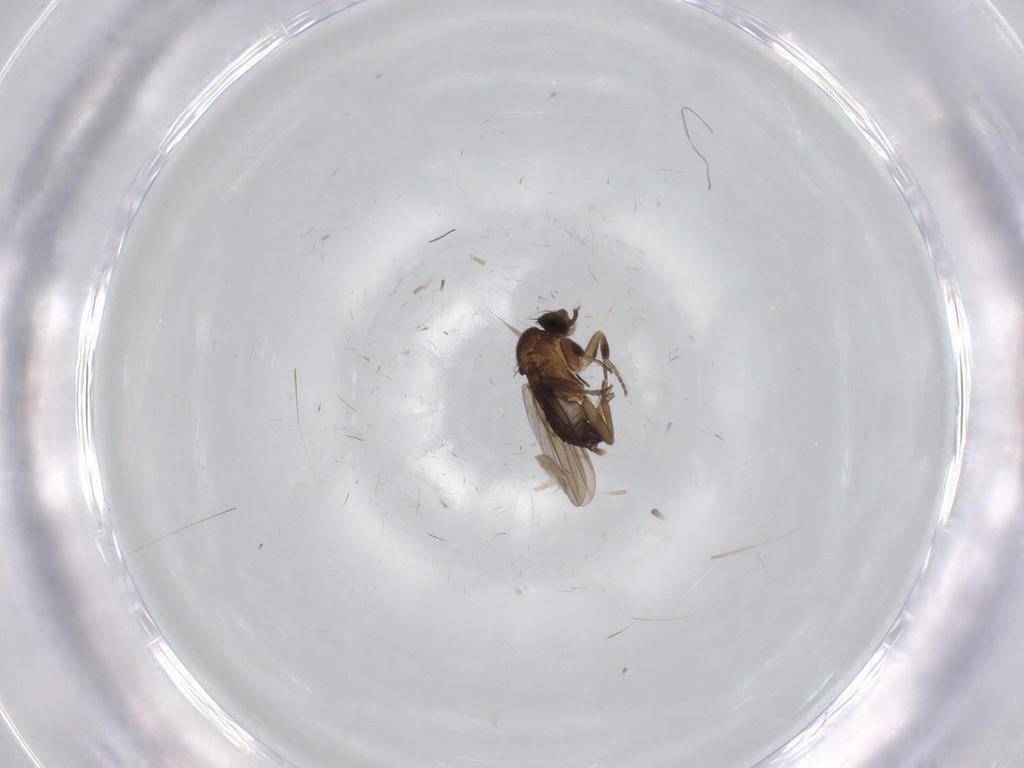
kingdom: Animalia
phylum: Arthropoda
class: Insecta
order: Diptera
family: Phoridae
